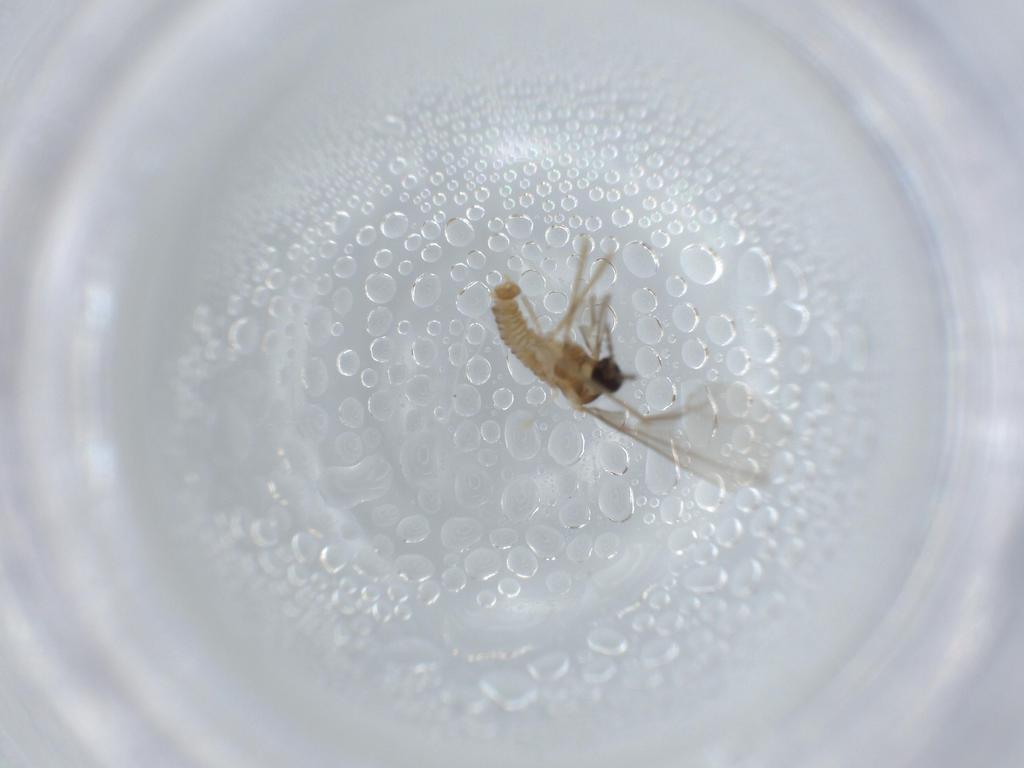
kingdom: Animalia
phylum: Arthropoda
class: Insecta
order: Diptera
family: Cecidomyiidae
